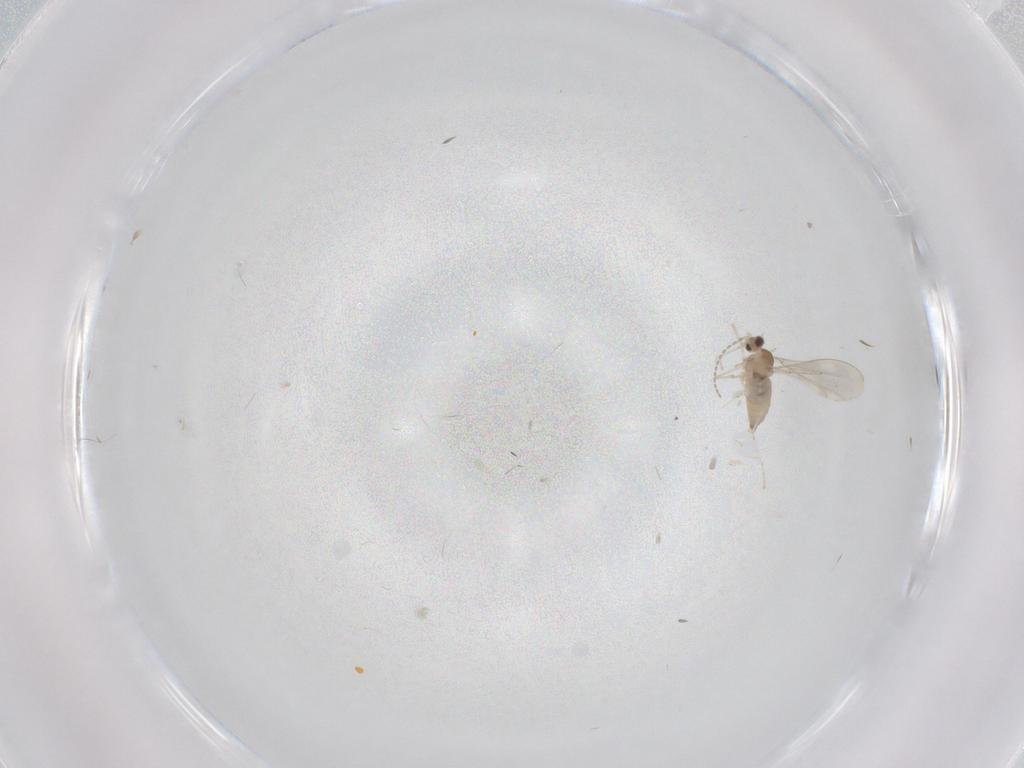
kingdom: Animalia
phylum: Arthropoda
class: Insecta
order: Diptera
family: Cecidomyiidae
